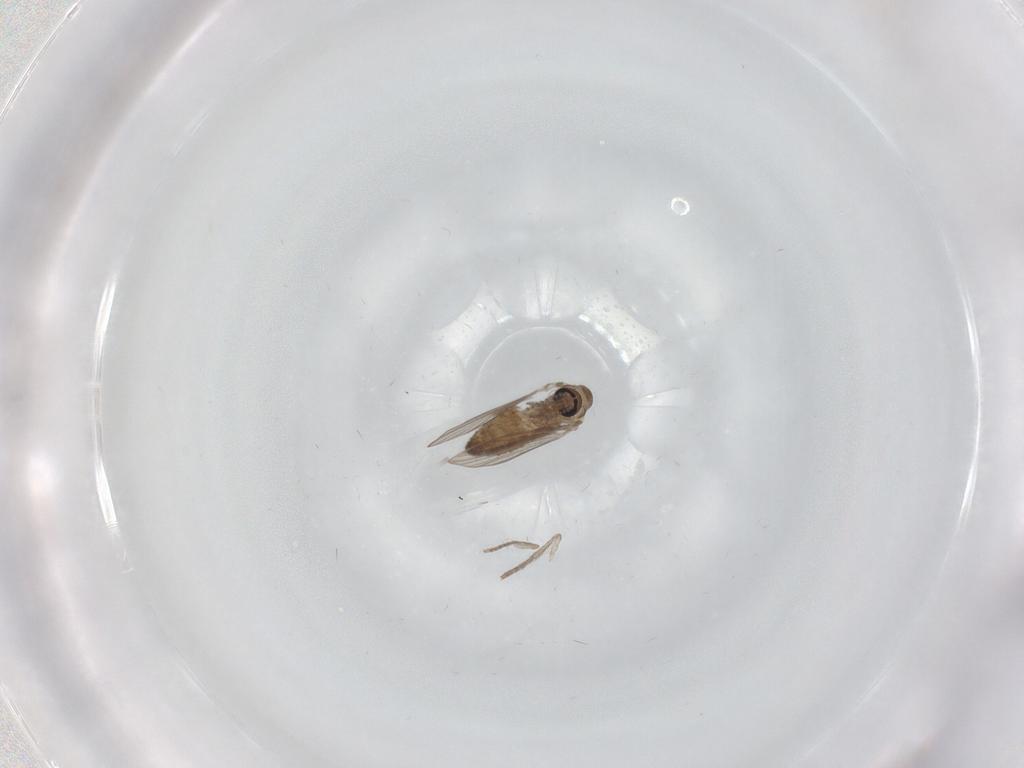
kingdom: Animalia
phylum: Arthropoda
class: Insecta
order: Diptera
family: Psychodidae
